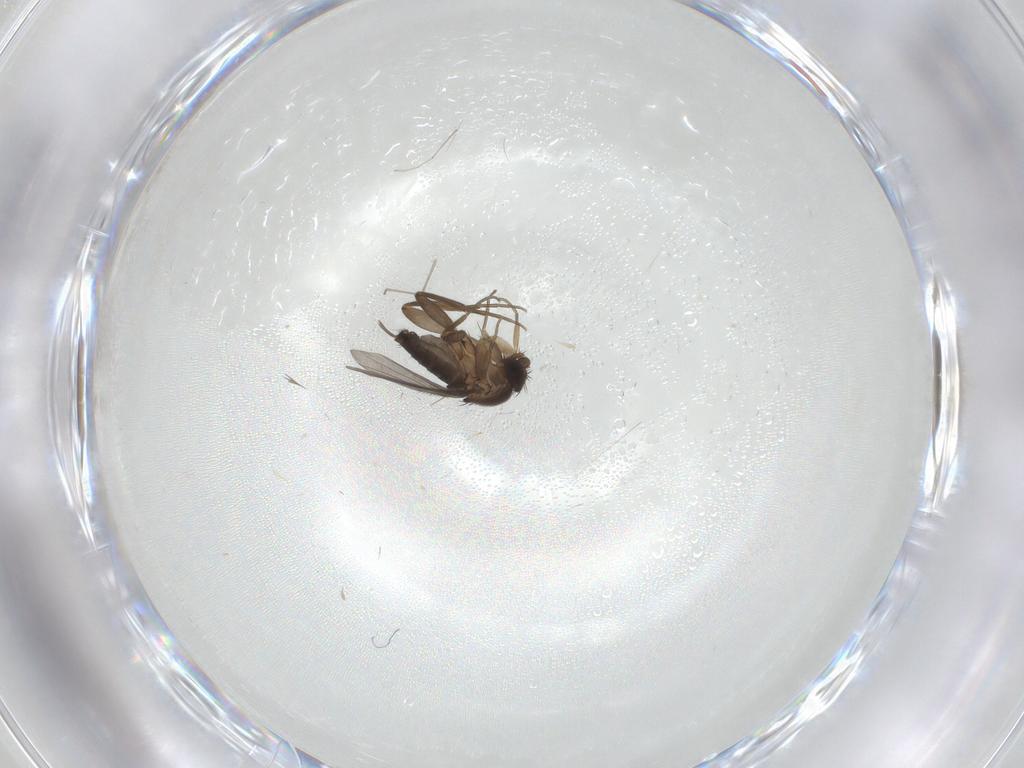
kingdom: Animalia
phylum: Arthropoda
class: Insecta
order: Diptera
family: Phoridae
